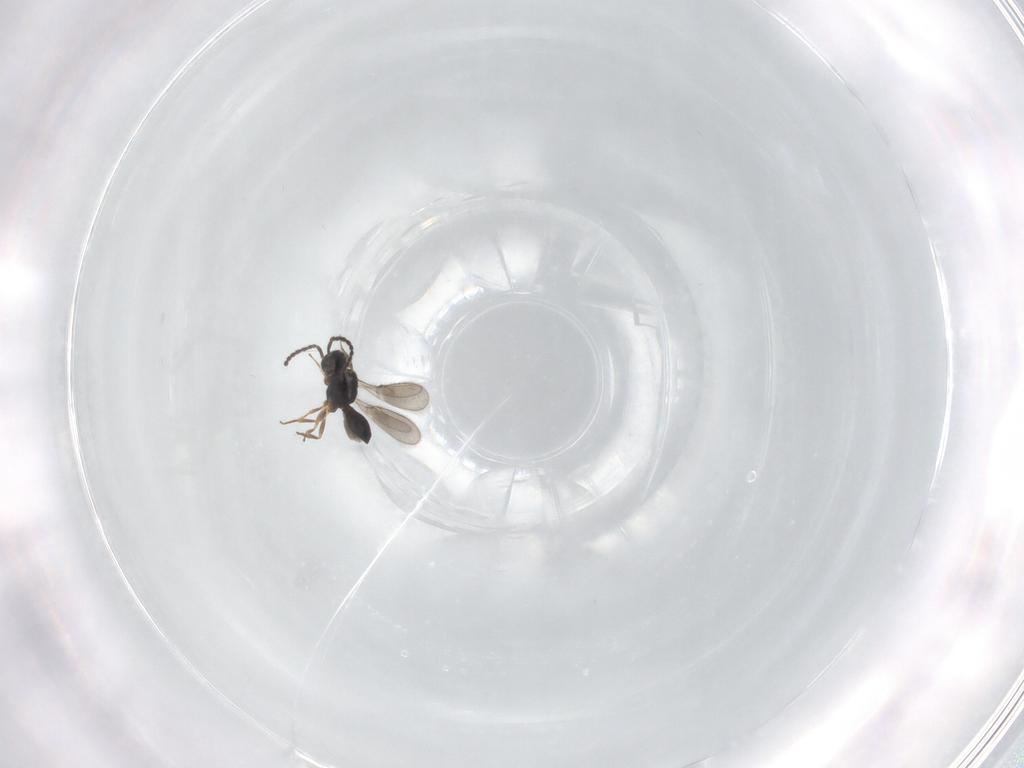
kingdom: Animalia
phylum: Arthropoda
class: Insecta
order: Hymenoptera
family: Scelionidae
